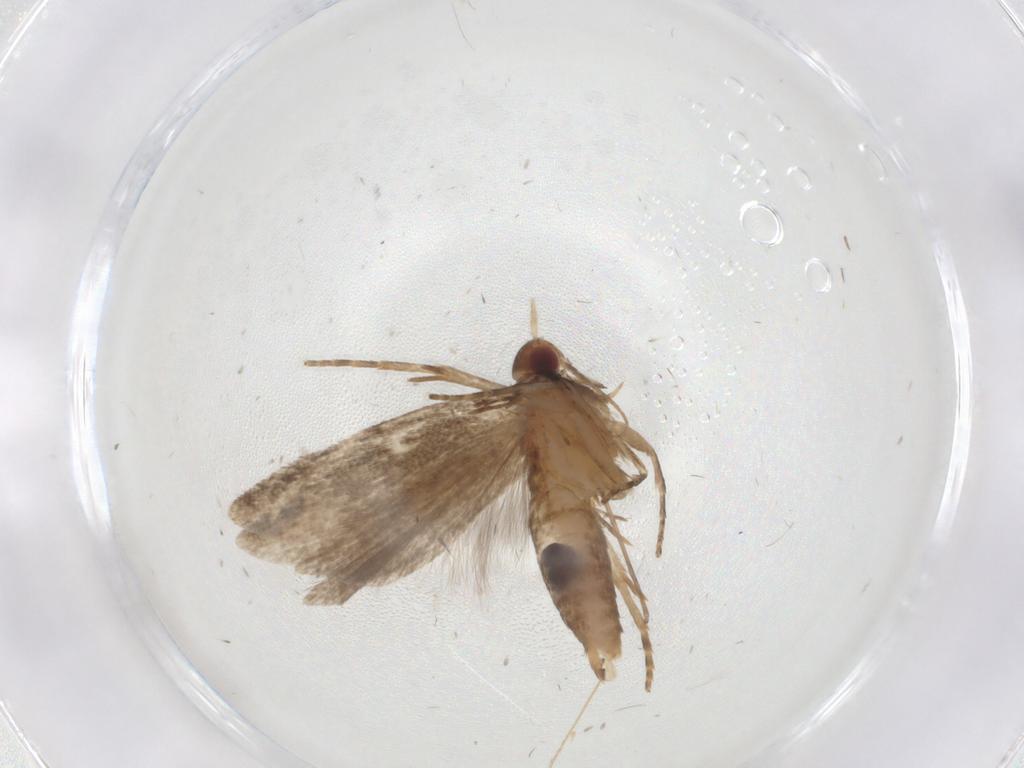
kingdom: Animalia
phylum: Arthropoda
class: Insecta
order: Lepidoptera
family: Gelechiidae
